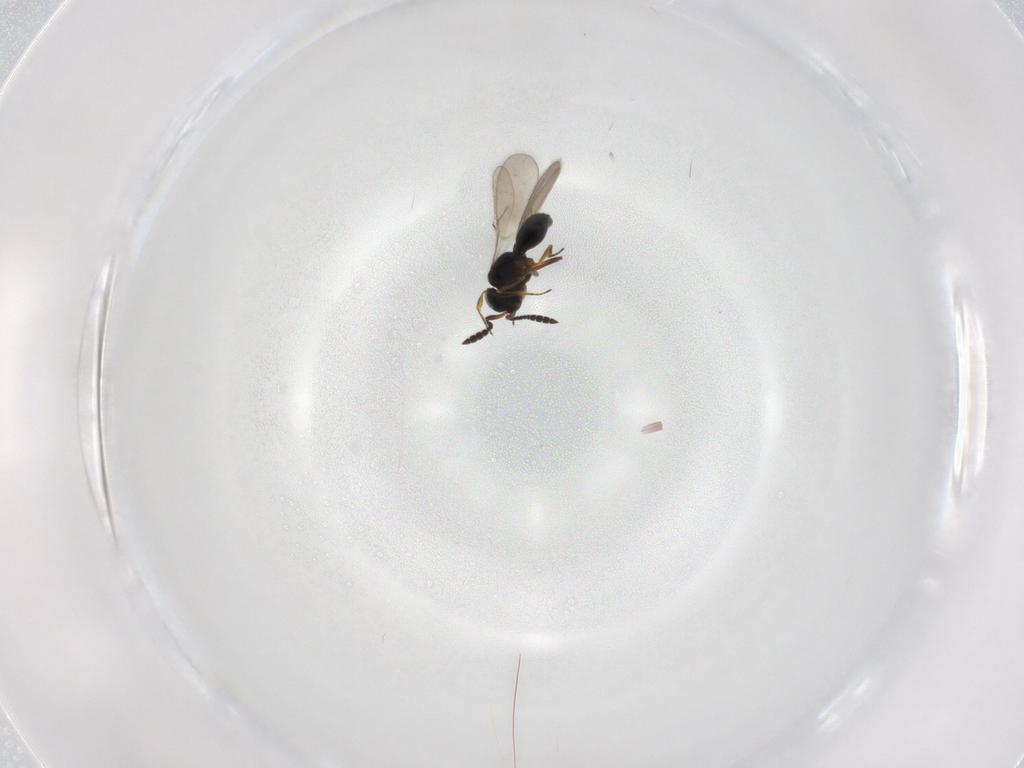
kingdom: Animalia
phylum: Arthropoda
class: Insecta
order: Hymenoptera
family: Scelionidae
